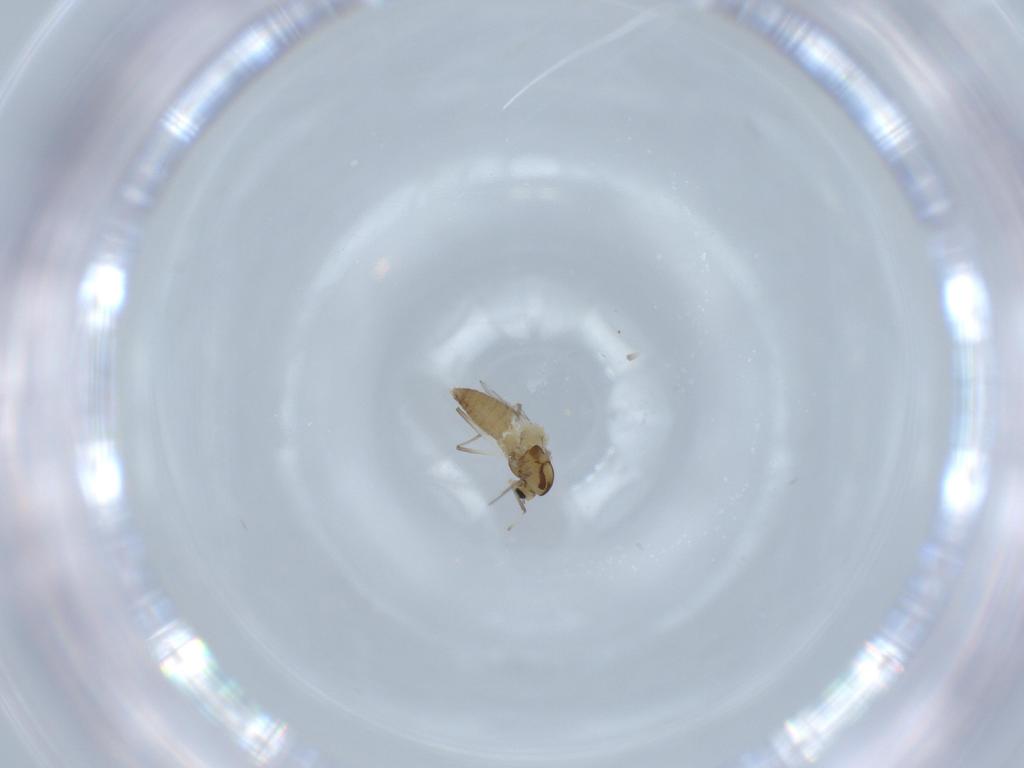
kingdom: Animalia
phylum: Arthropoda
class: Insecta
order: Diptera
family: Chironomidae
